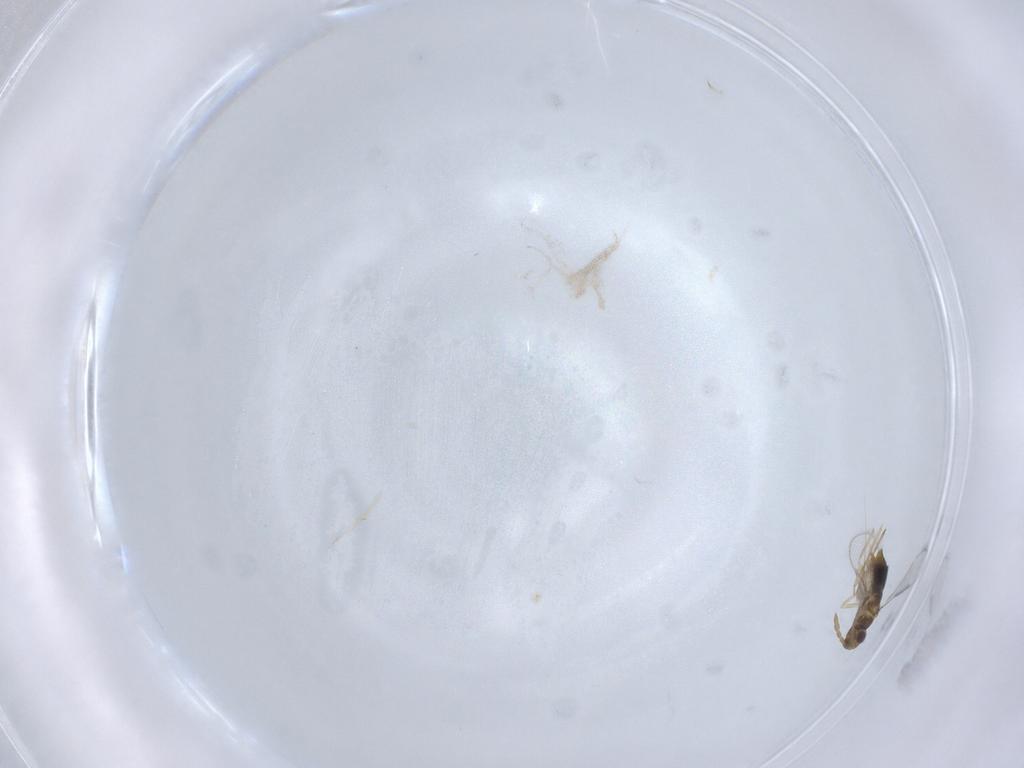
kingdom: Animalia
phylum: Arthropoda
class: Insecta
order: Hymenoptera
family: Aphelinidae
